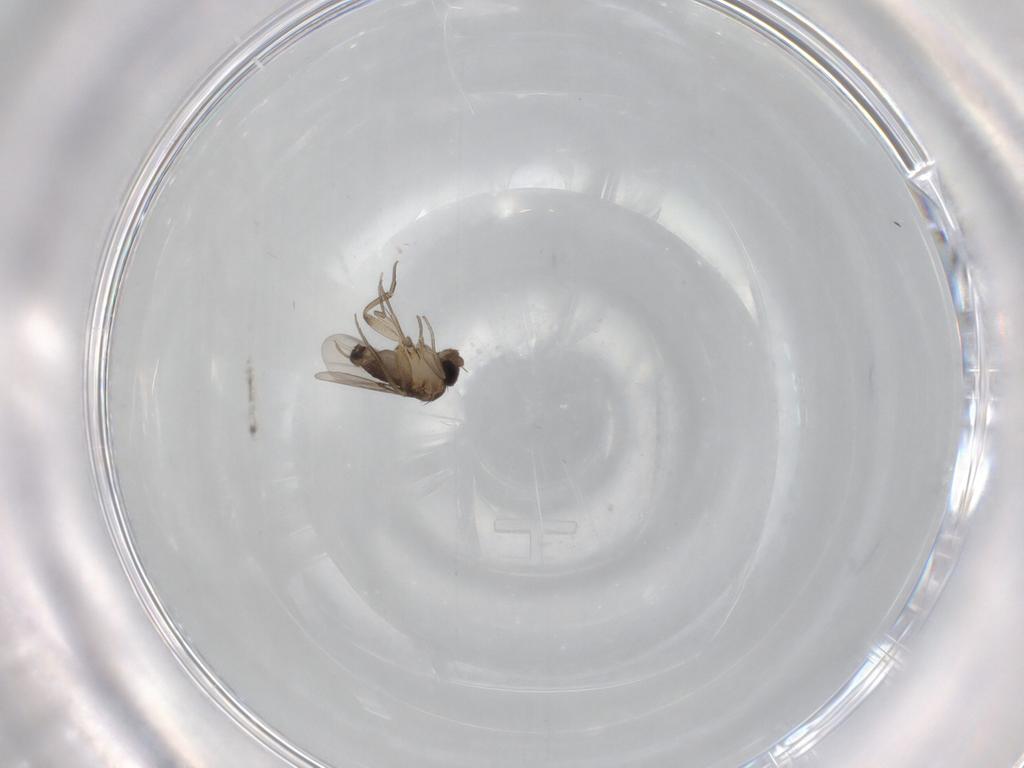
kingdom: Animalia
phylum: Arthropoda
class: Insecta
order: Diptera
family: Phoridae
